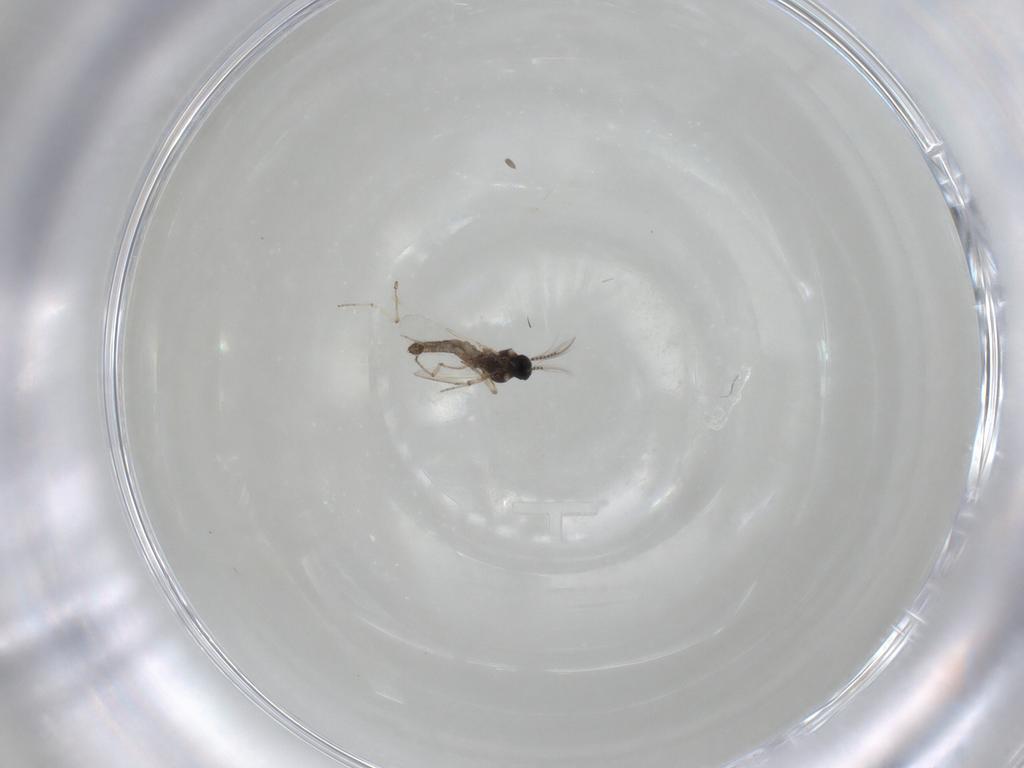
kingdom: Animalia
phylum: Arthropoda
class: Insecta
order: Diptera
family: Ceratopogonidae
